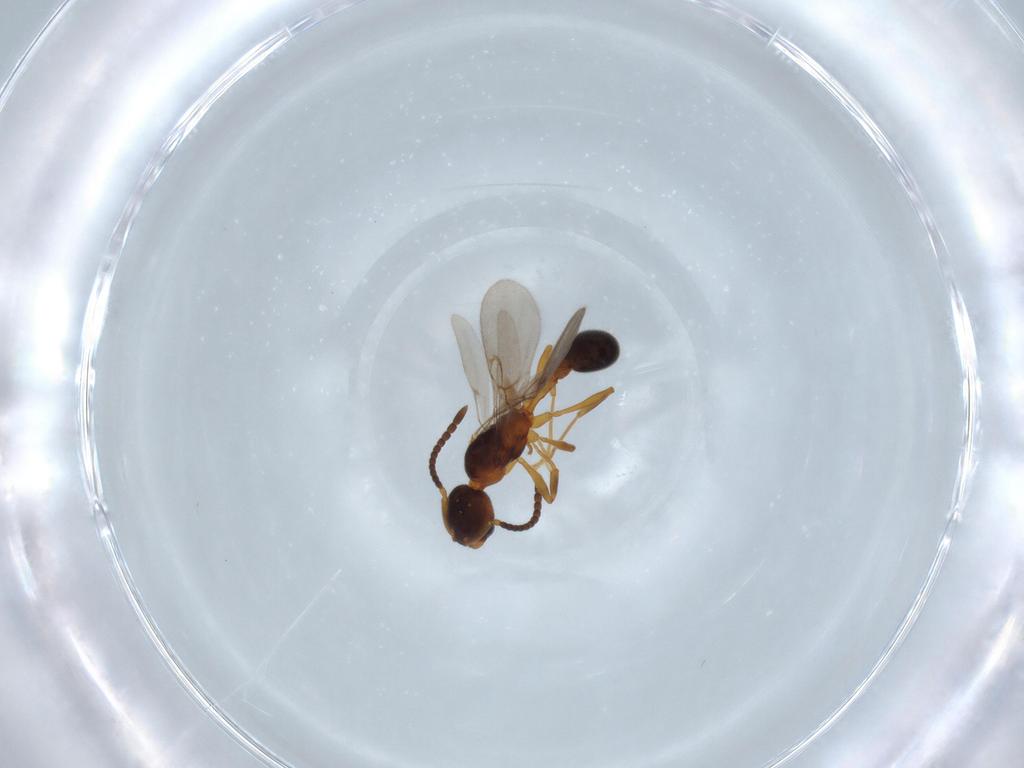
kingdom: Animalia
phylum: Arthropoda
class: Insecta
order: Hymenoptera
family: Formicidae
